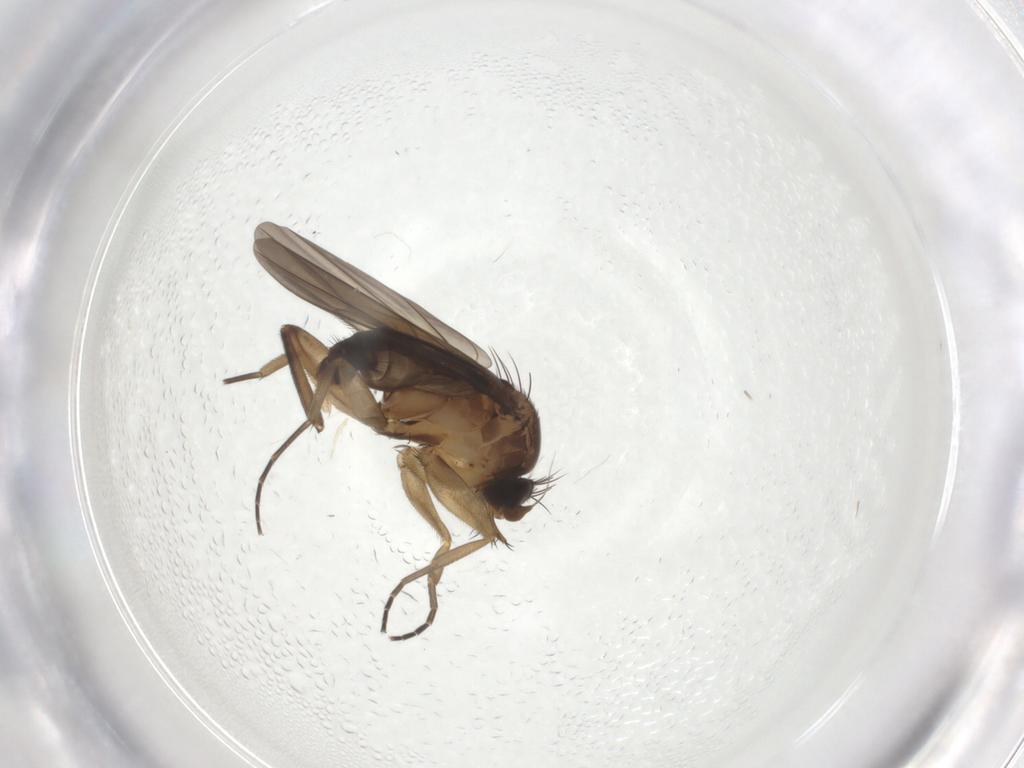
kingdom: Animalia
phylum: Arthropoda
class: Insecta
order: Diptera
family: Phoridae
